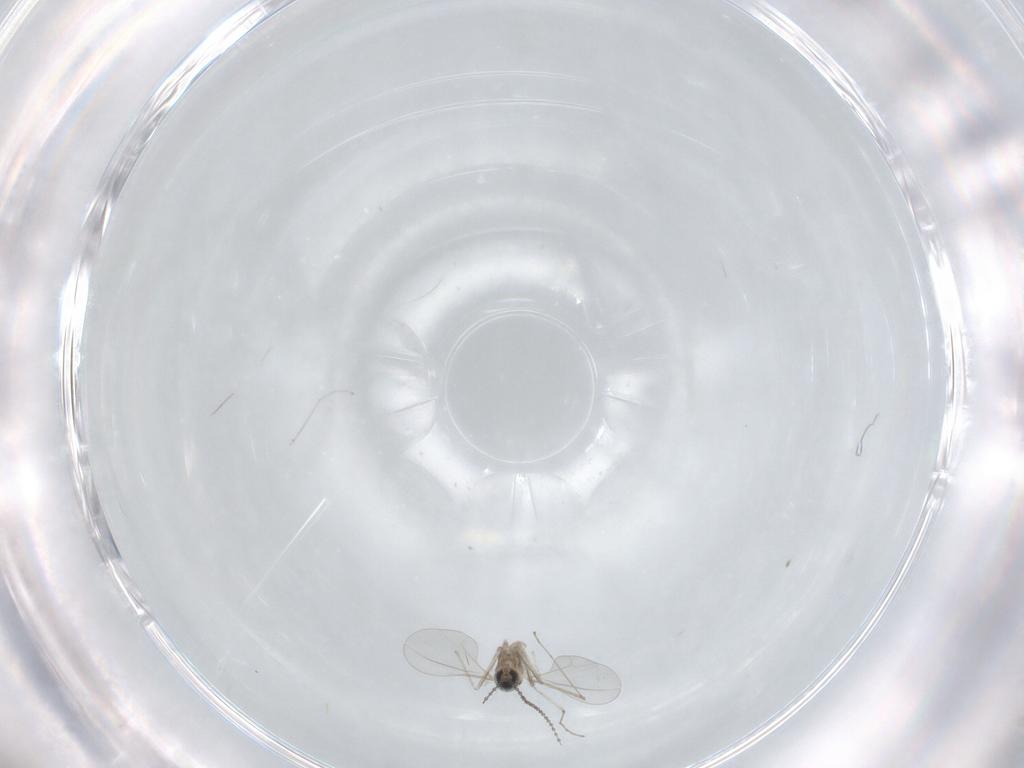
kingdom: Animalia
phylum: Arthropoda
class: Insecta
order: Diptera
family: Cecidomyiidae
